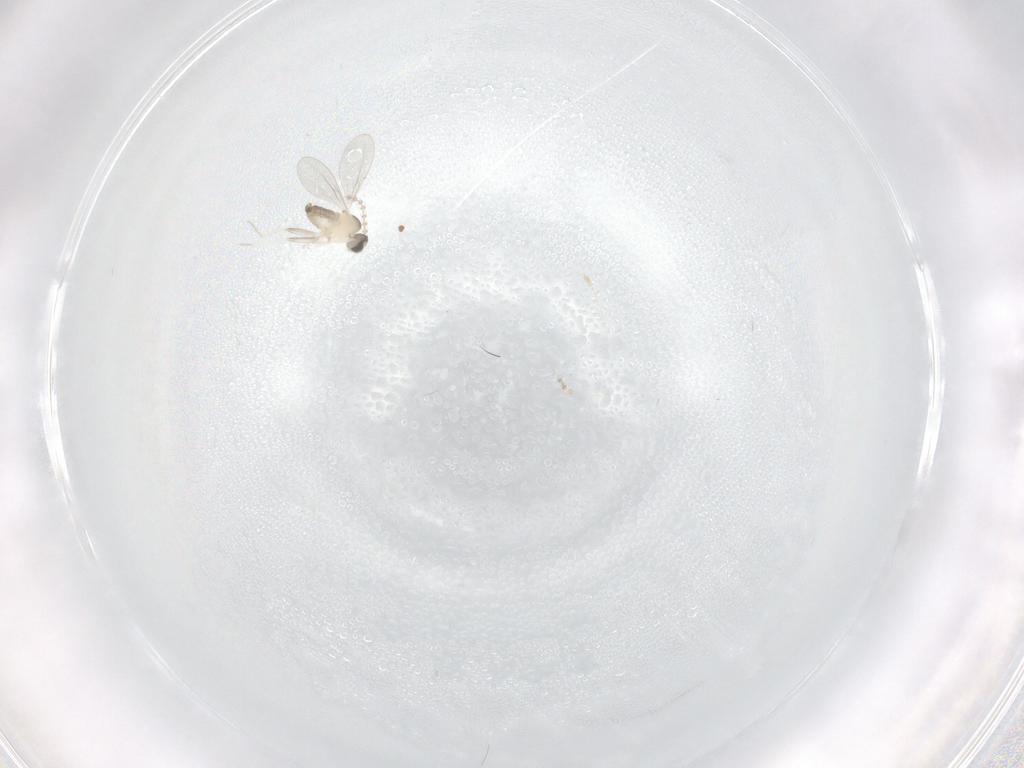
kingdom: Animalia
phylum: Arthropoda
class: Insecta
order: Diptera
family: Cecidomyiidae
